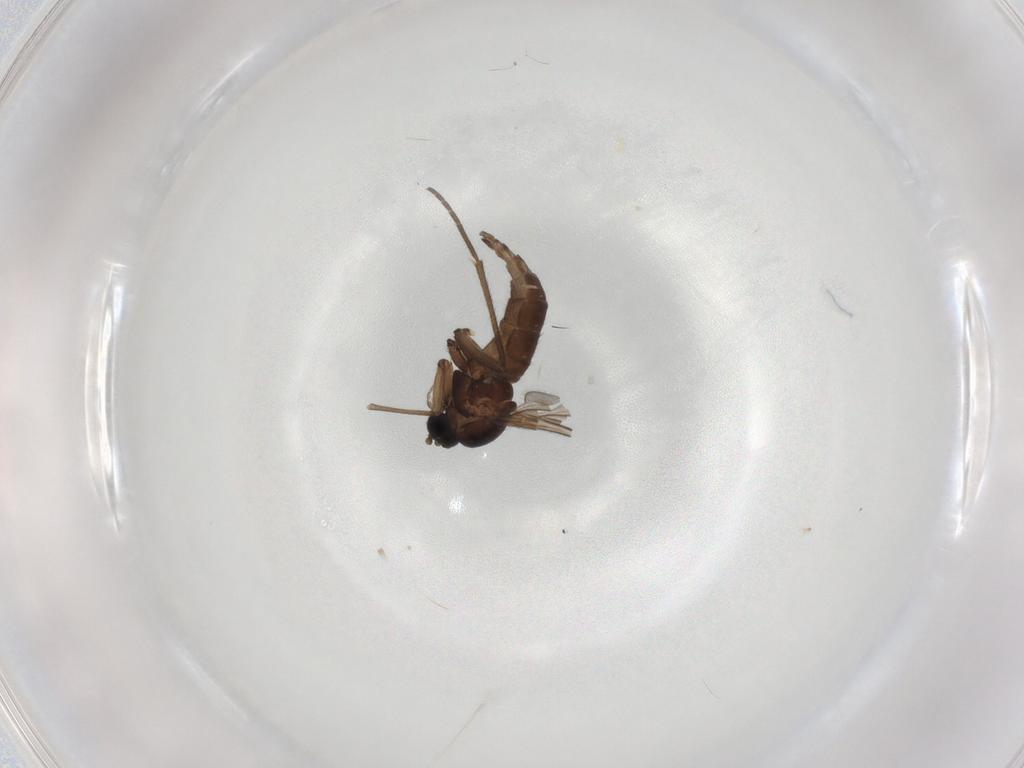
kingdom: Animalia
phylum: Arthropoda
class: Insecta
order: Diptera
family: Sciaridae
